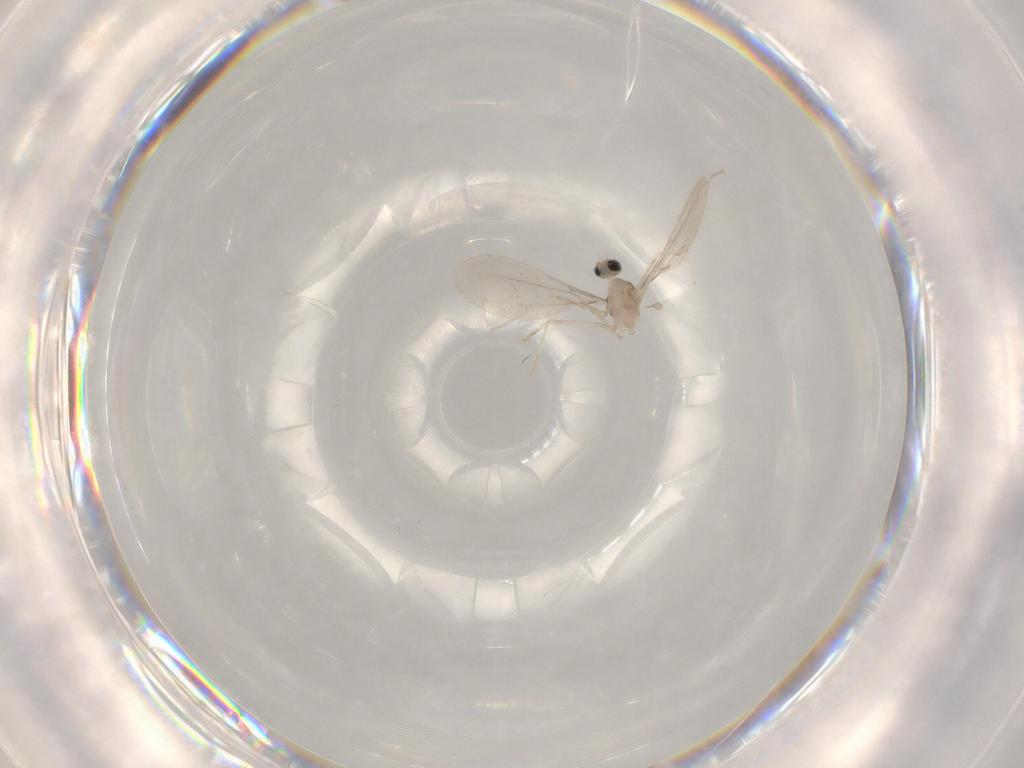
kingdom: Animalia
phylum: Arthropoda
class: Insecta
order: Diptera
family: Cecidomyiidae
